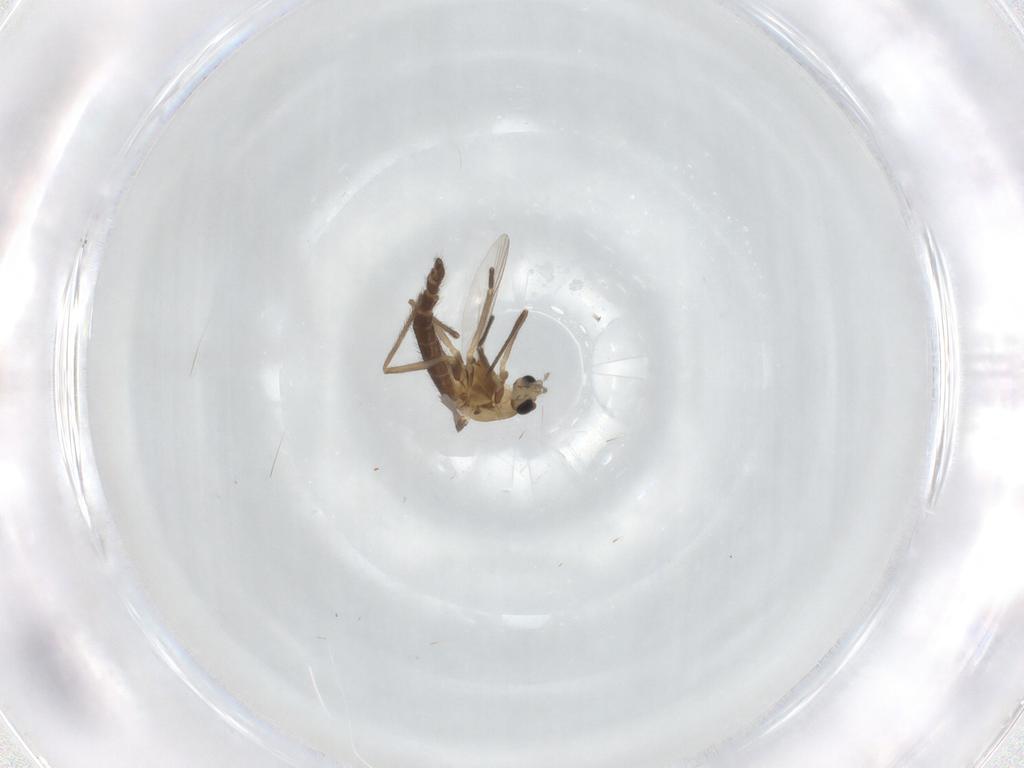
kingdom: Animalia
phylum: Arthropoda
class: Insecta
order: Diptera
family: Chironomidae
